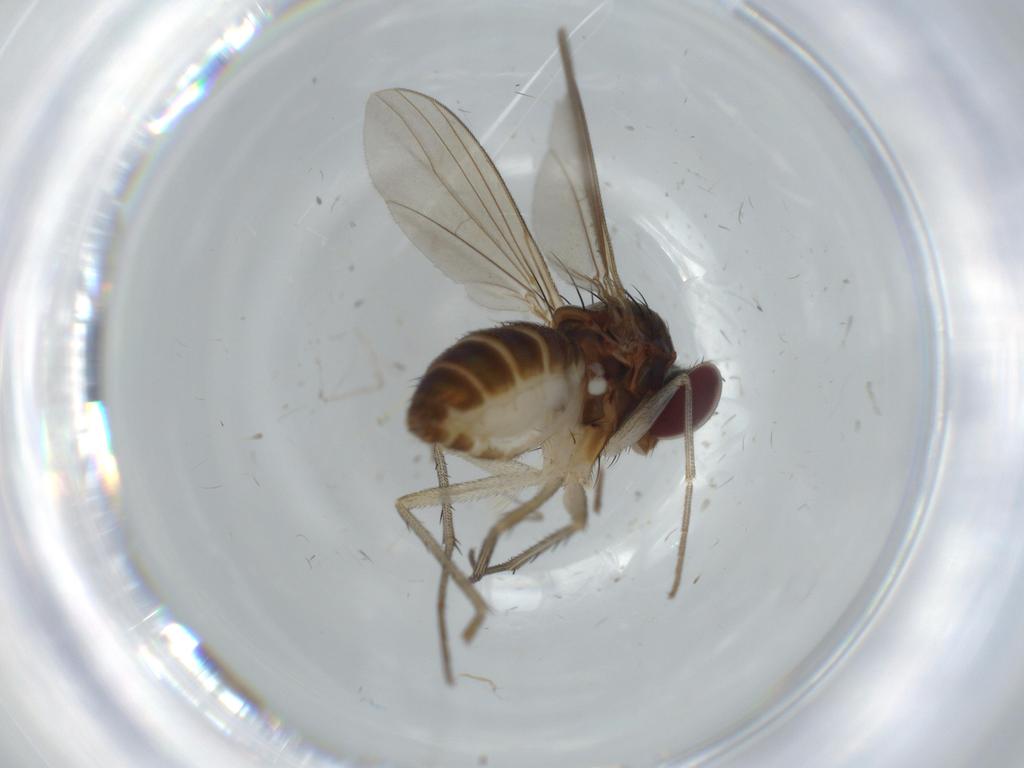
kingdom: Animalia
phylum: Arthropoda
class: Insecta
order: Diptera
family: Dolichopodidae
